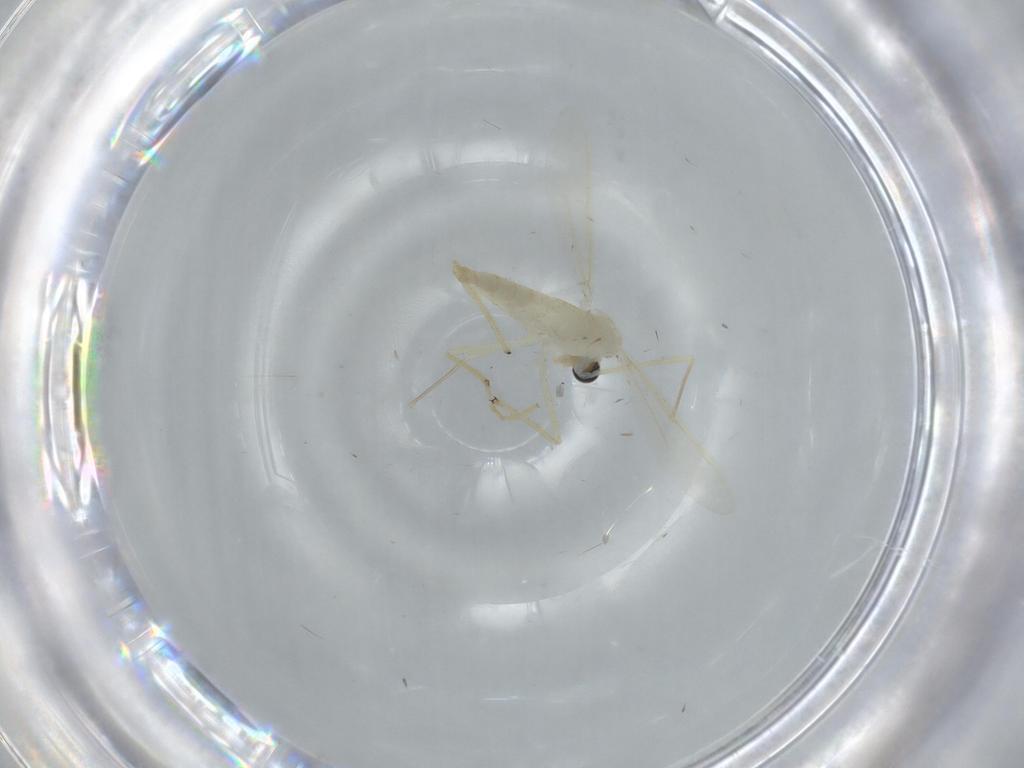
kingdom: Animalia
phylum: Arthropoda
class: Insecta
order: Diptera
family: Chironomidae
